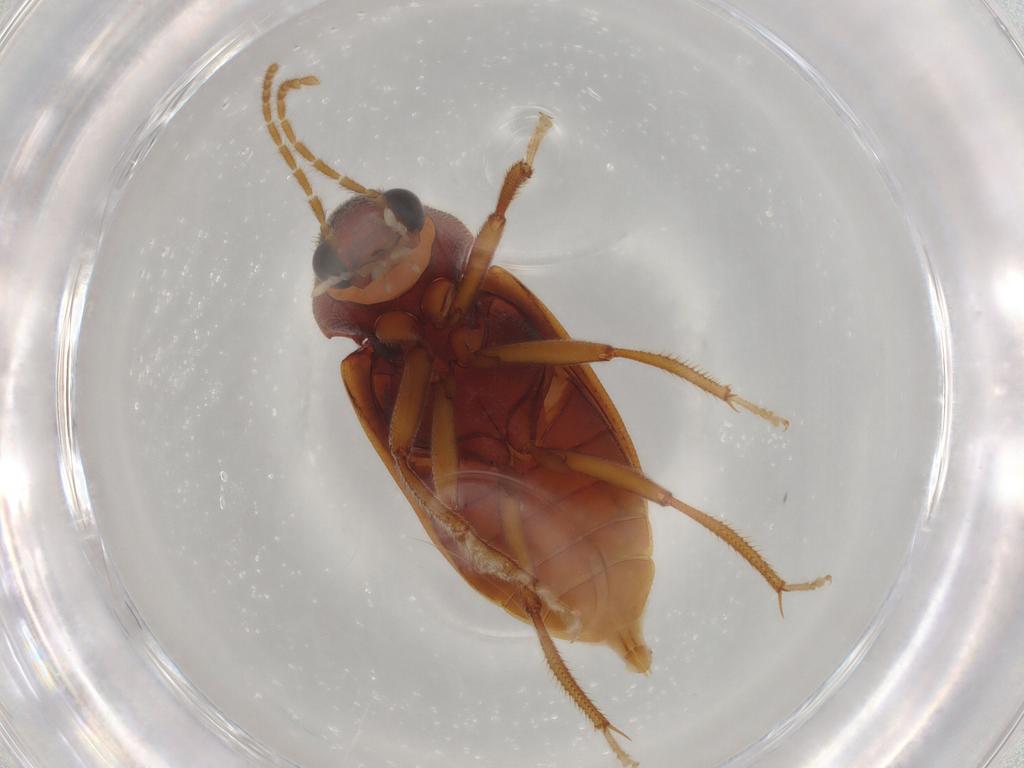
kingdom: Animalia
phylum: Arthropoda
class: Insecta
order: Coleoptera
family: Ptilodactylidae
